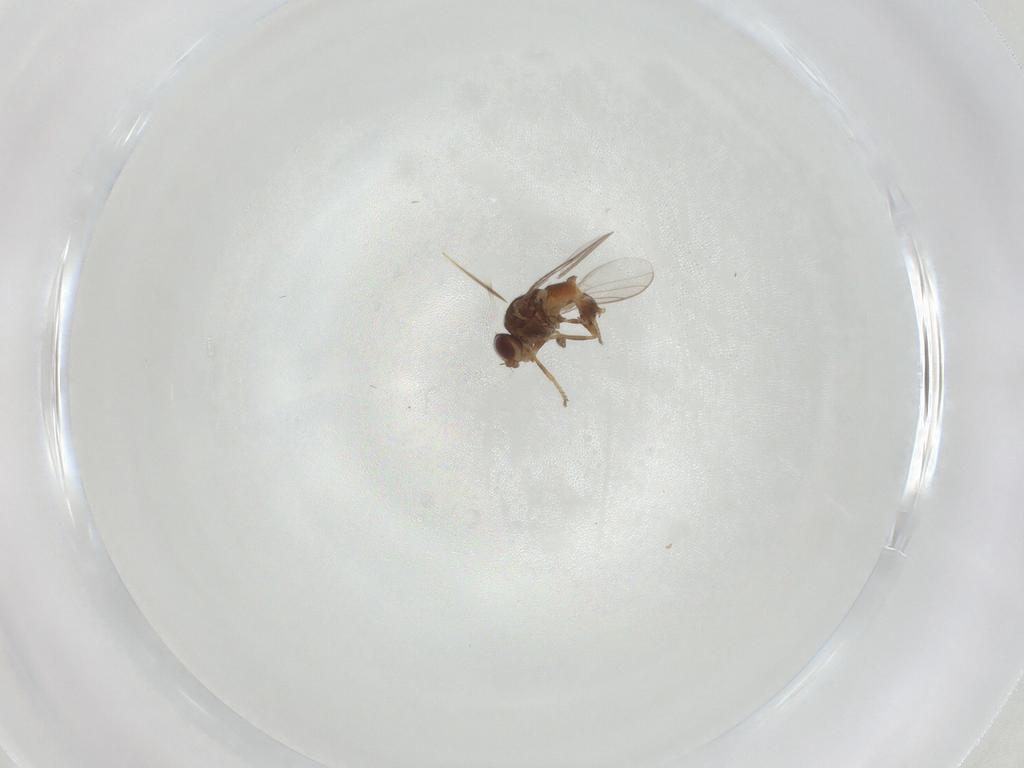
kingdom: Animalia
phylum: Arthropoda
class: Insecta
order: Diptera
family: Chloropidae
